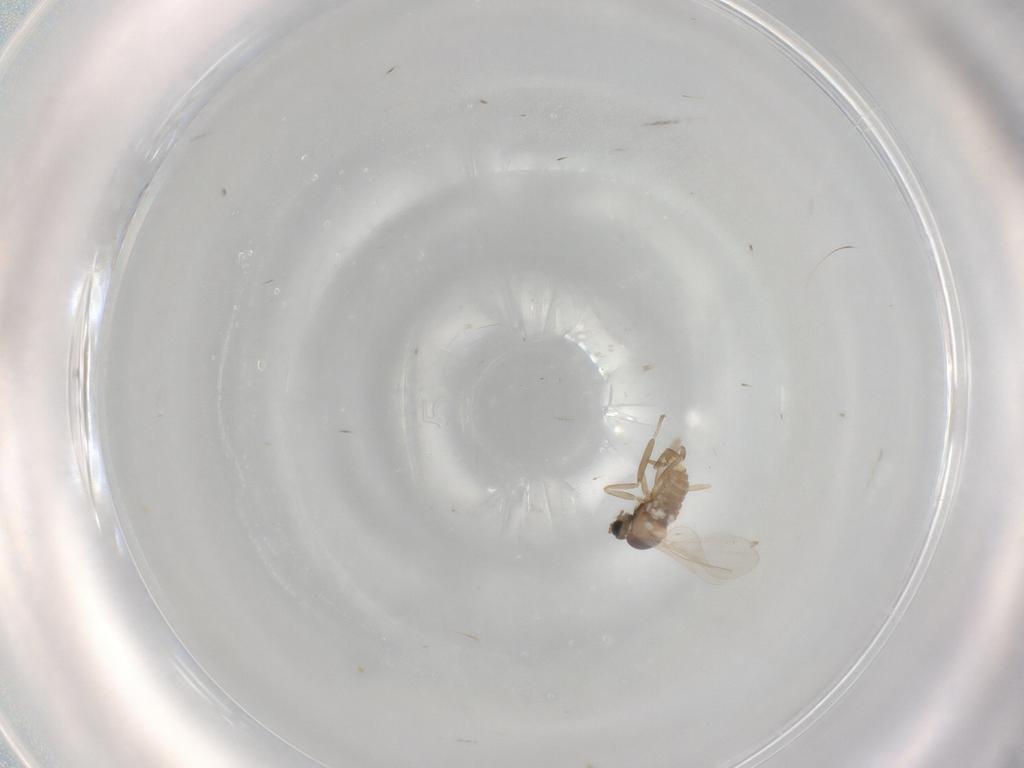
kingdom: Animalia
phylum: Arthropoda
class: Insecta
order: Diptera
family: Cecidomyiidae
